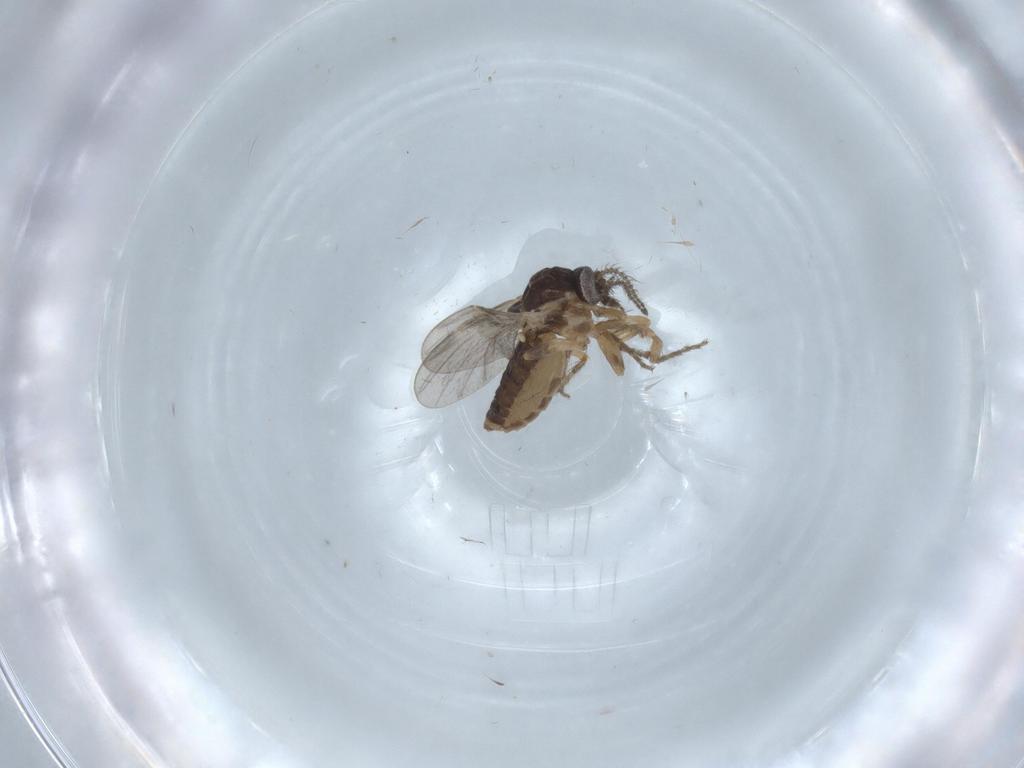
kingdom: Animalia
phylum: Arthropoda
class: Insecta
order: Diptera
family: Ceratopogonidae
